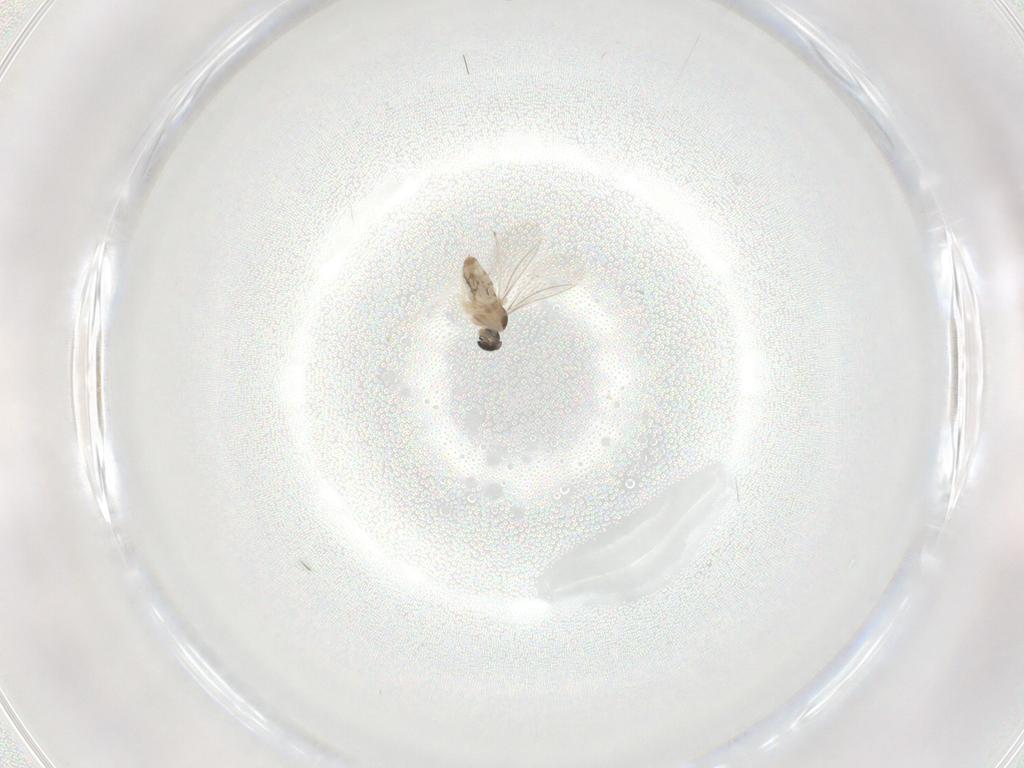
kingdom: Animalia
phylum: Arthropoda
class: Insecta
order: Diptera
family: Cecidomyiidae
